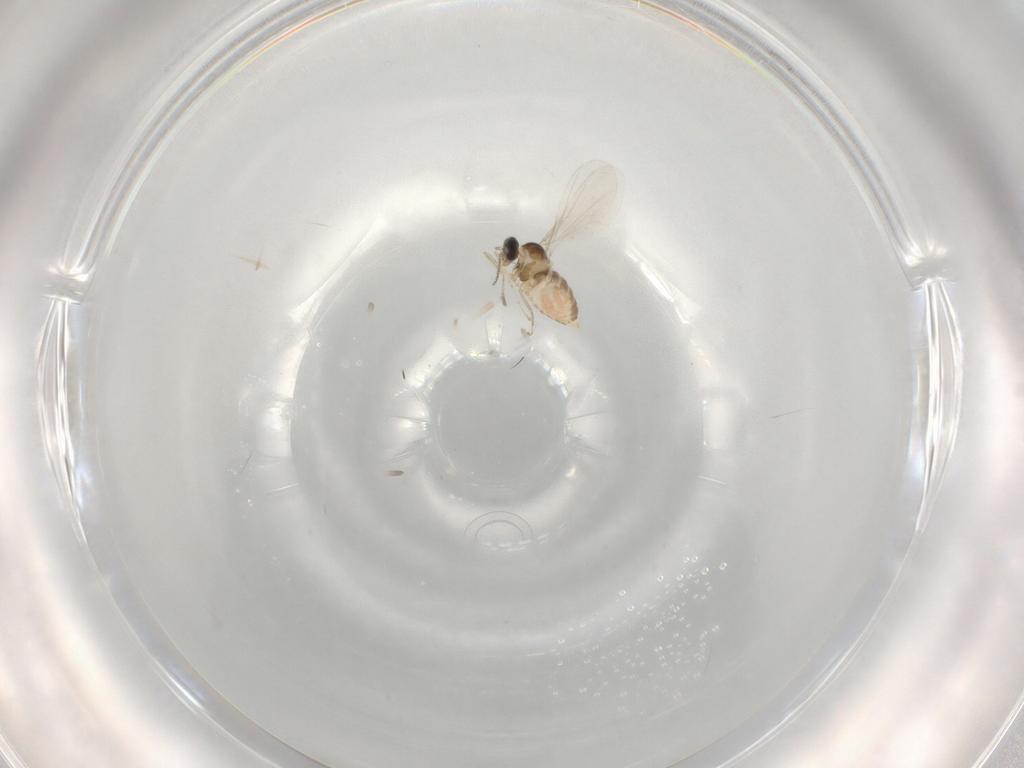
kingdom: Animalia
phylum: Arthropoda
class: Insecta
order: Diptera
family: Cecidomyiidae
